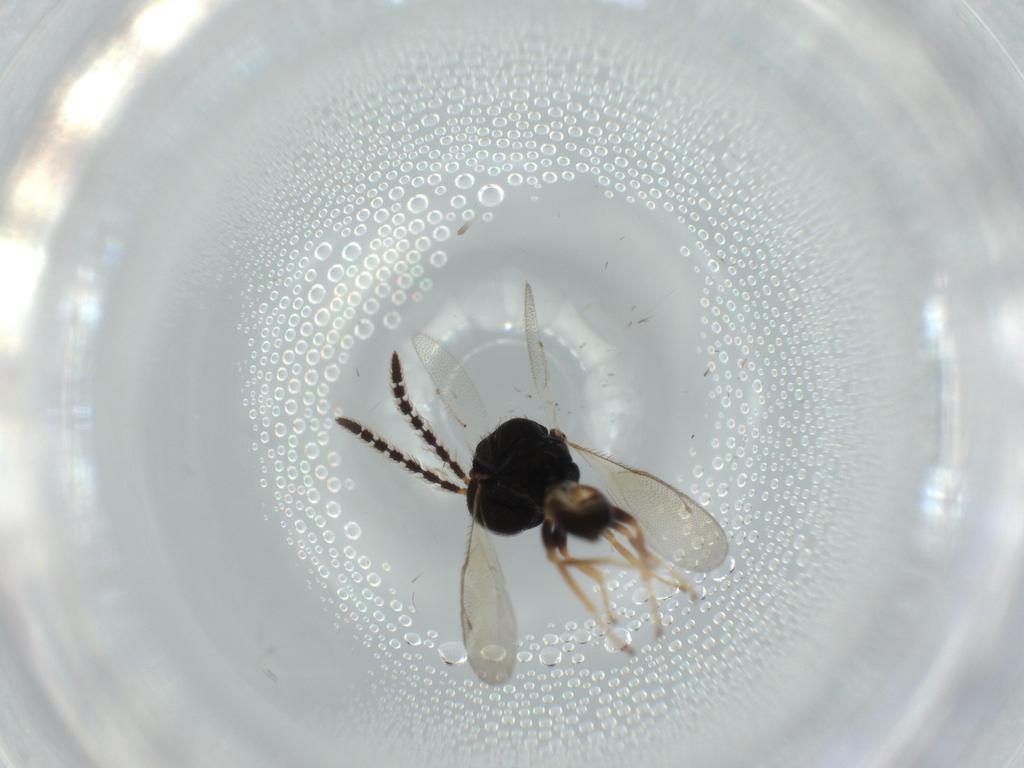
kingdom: Animalia
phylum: Arthropoda
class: Insecta
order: Hymenoptera
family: Pteromalidae
